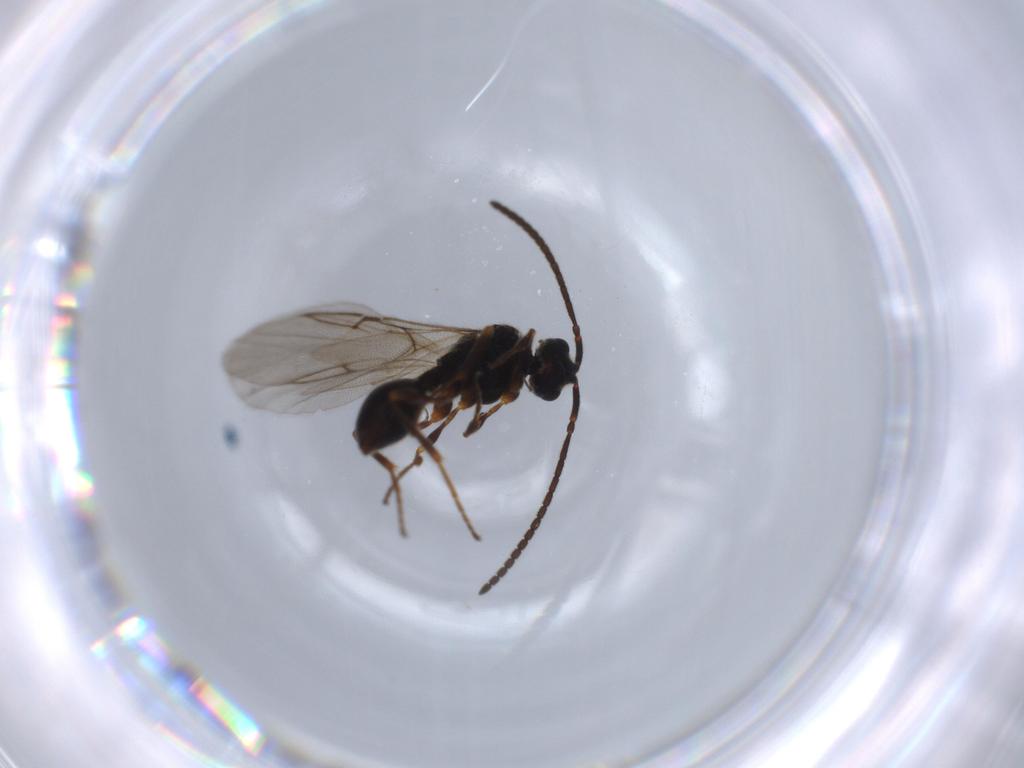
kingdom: Animalia
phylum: Arthropoda
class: Insecta
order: Hymenoptera
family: Diapriidae
